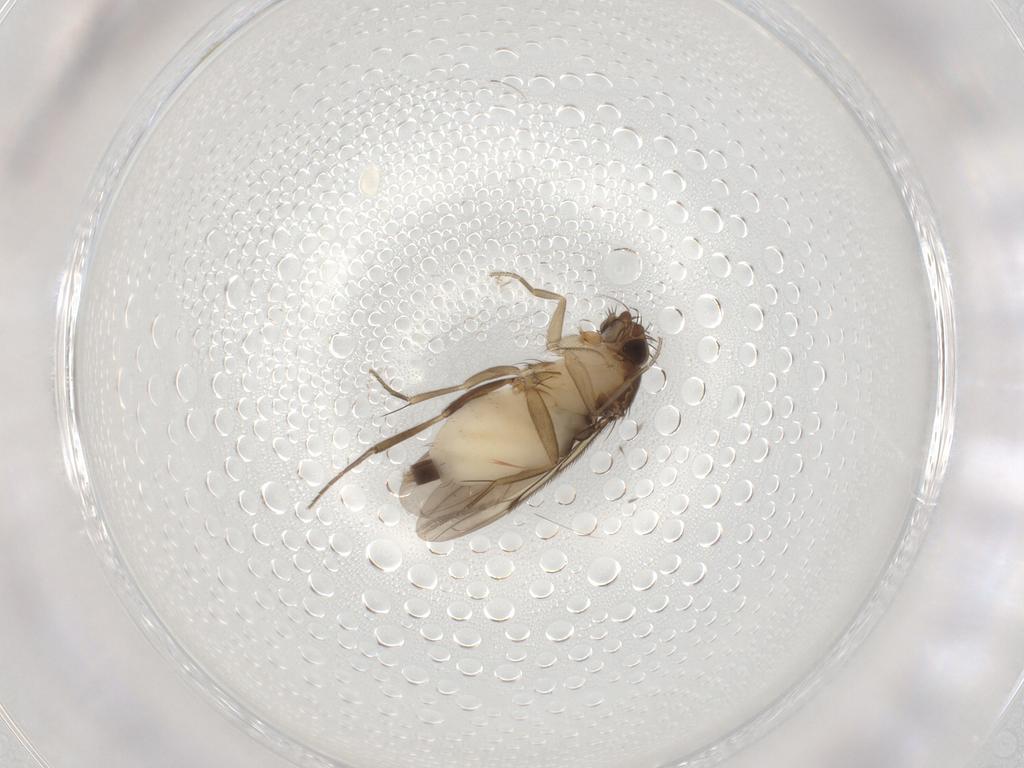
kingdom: Animalia
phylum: Arthropoda
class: Insecta
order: Diptera
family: Phoridae
